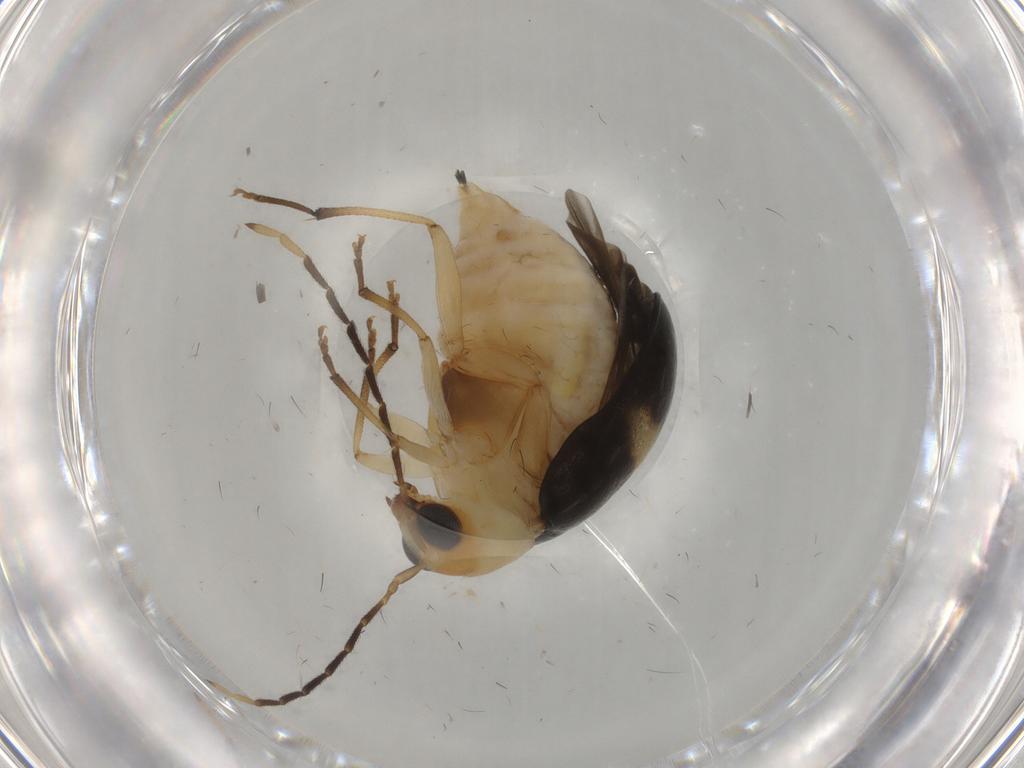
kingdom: Animalia
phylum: Arthropoda
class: Insecta
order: Coleoptera
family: Chrysomelidae
